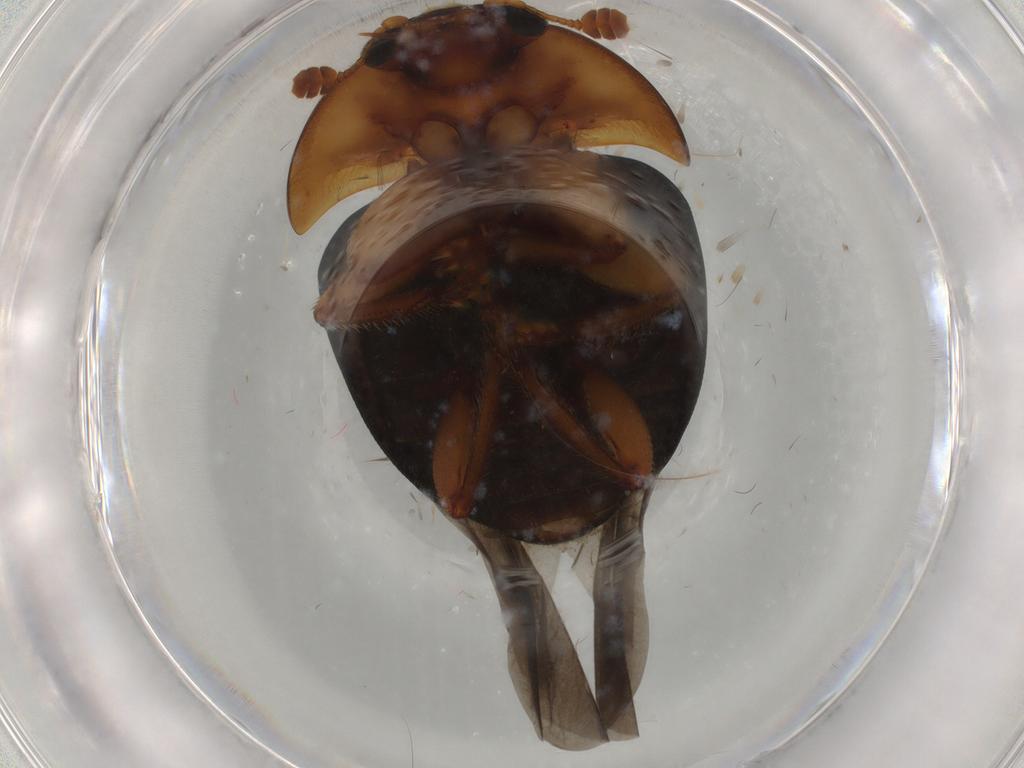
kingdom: Animalia
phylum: Arthropoda
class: Insecta
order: Coleoptera
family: Nitidulidae
